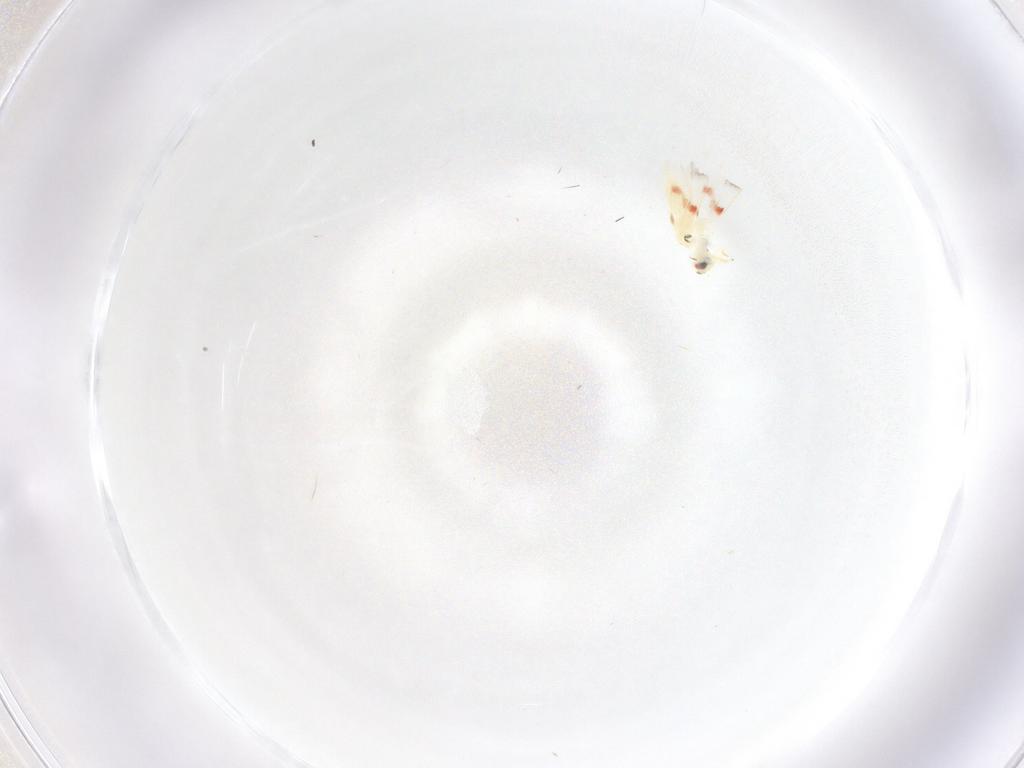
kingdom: Animalia
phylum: Arthropoda
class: Insecta
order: Hemiptera
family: Aleyrodidae
